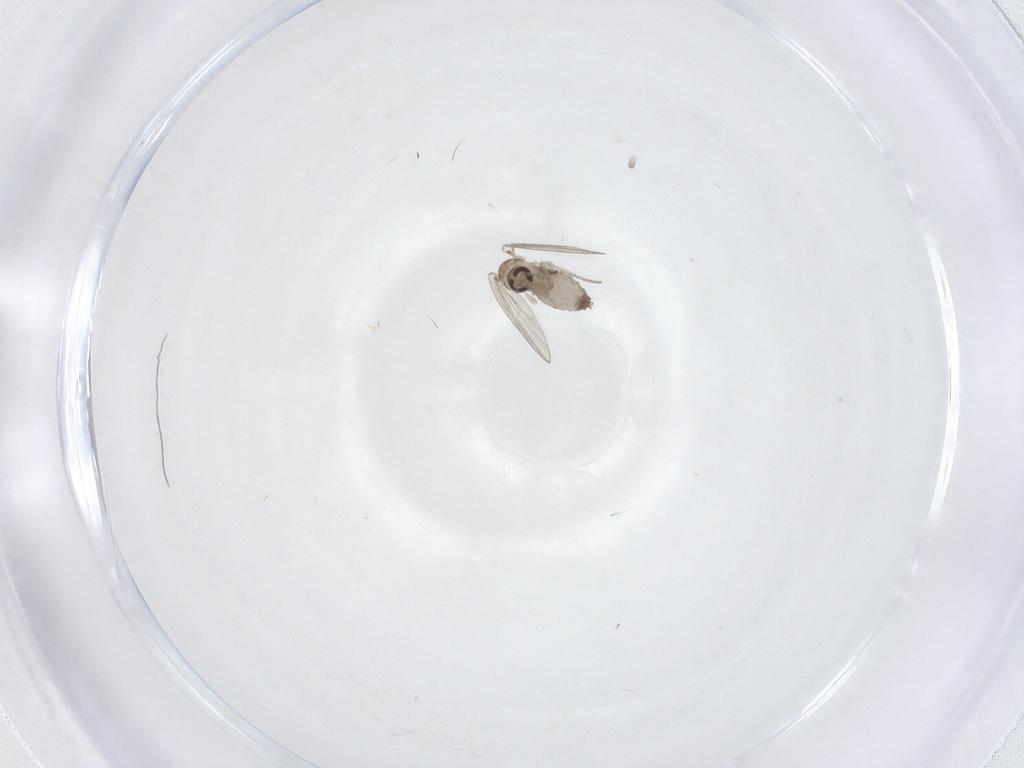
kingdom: Animalia
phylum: Arthropoda
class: Insecta
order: Diptera
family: Psychodidae
